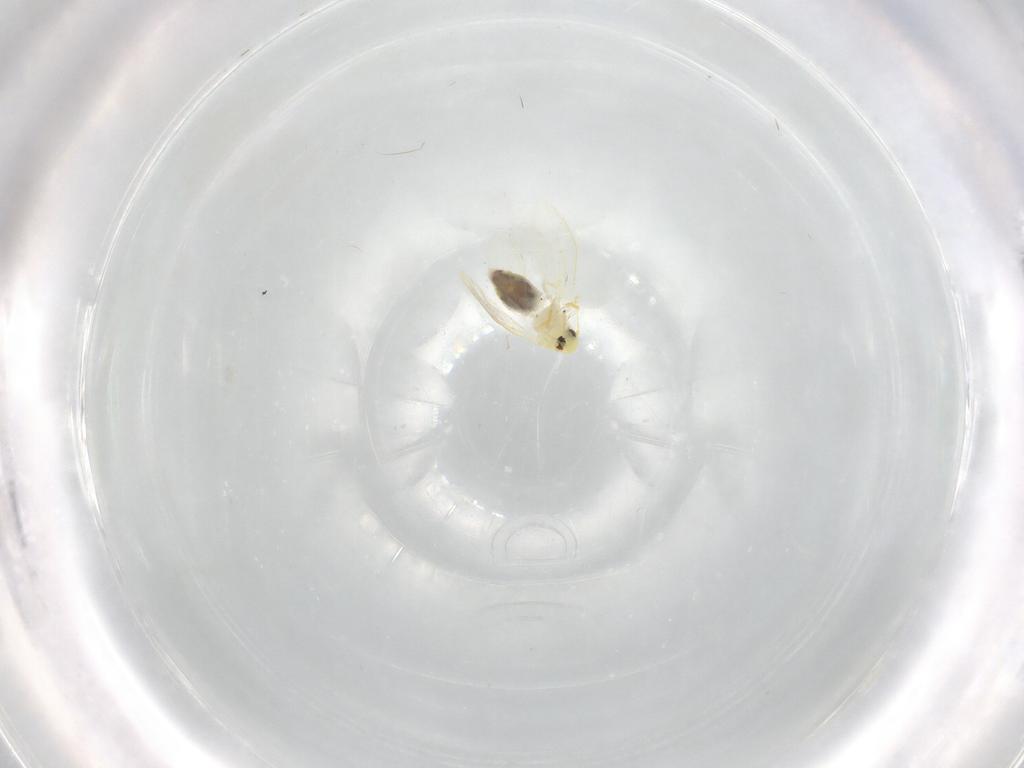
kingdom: Animalia
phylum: Arthropoda
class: Insecta
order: Hemiptera
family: Aleyrodidae
